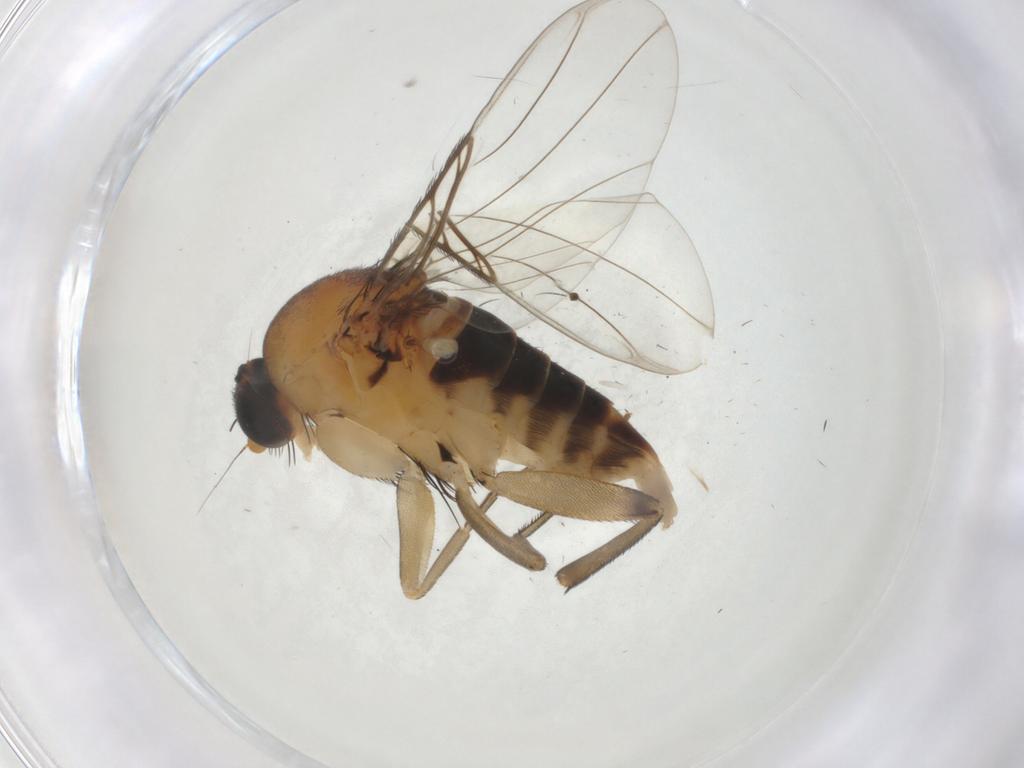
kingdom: Animalia
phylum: Arthropoda
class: Insecta
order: Diptera
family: Phoridae
